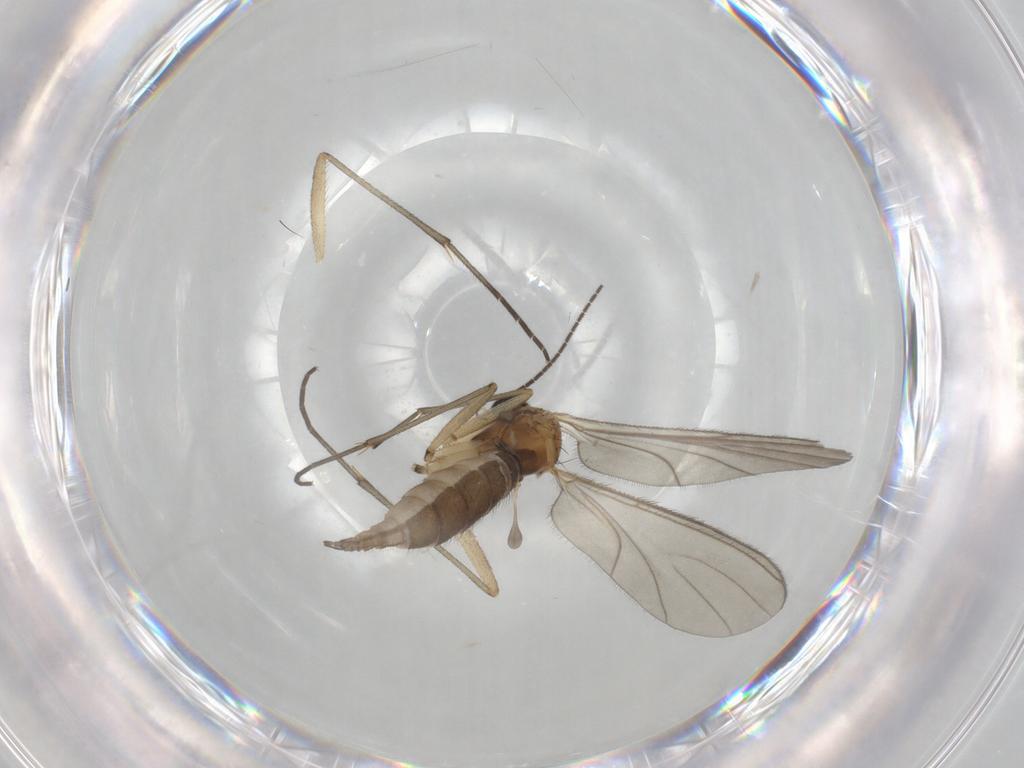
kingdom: Animalia
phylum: Arthropoda
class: Insecta
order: Diptera
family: Sciaridae
